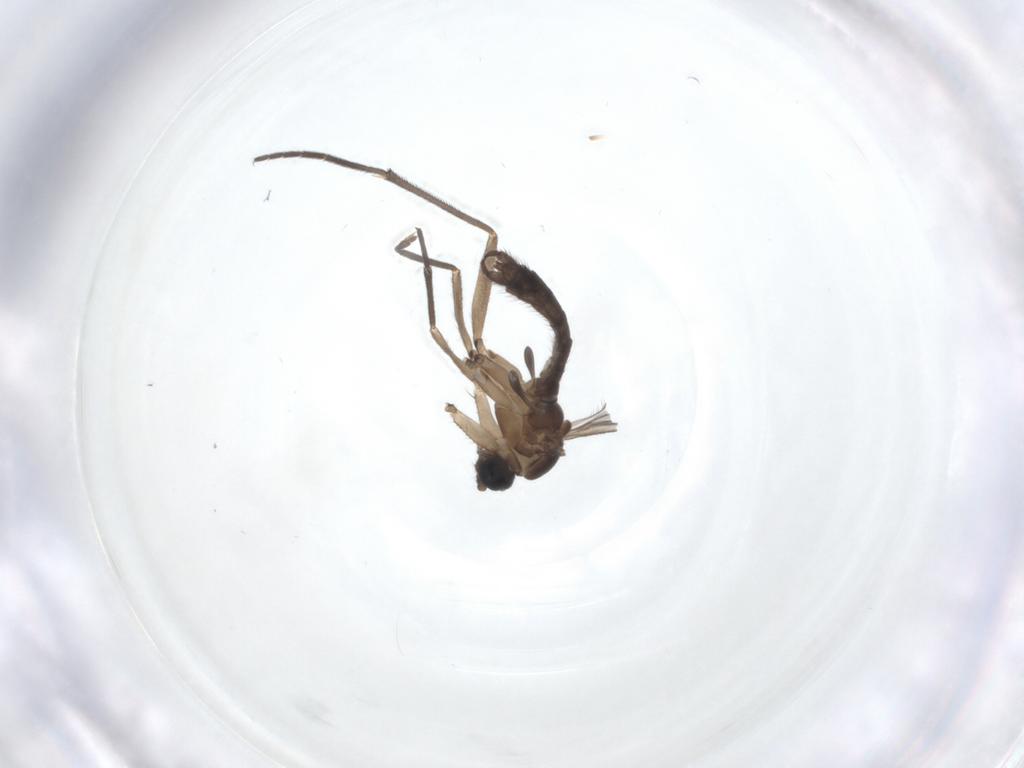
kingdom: Animalia
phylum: Arthropoda
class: Insecta
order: Diptera
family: Sciaridae
